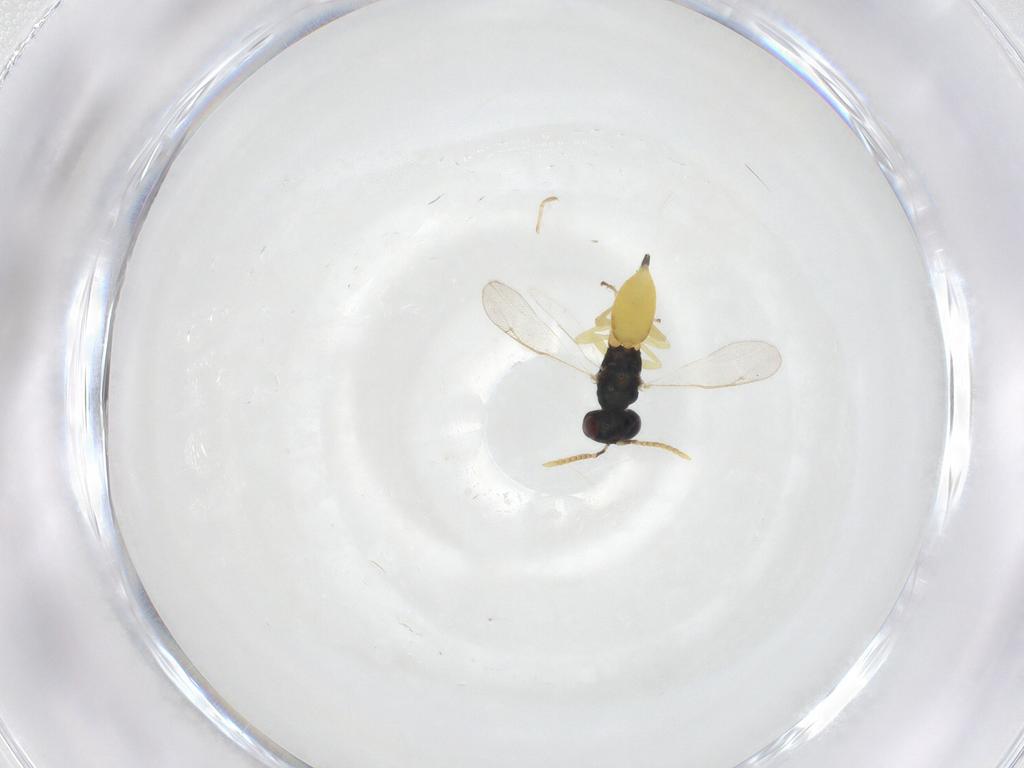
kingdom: Animalia
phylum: Arthropoda
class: Insecta
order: Hymenoptera
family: Pteromalidae
